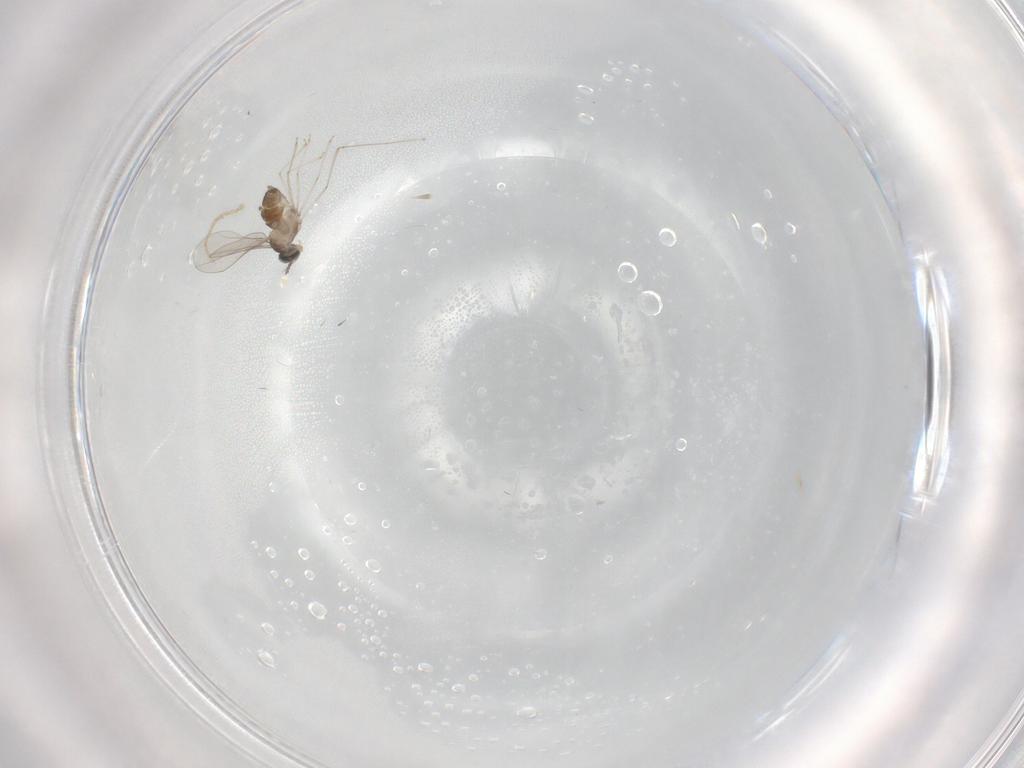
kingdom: Animalia
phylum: Arthropoda
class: Insecta
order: Diptera
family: Cecidomyiidae
